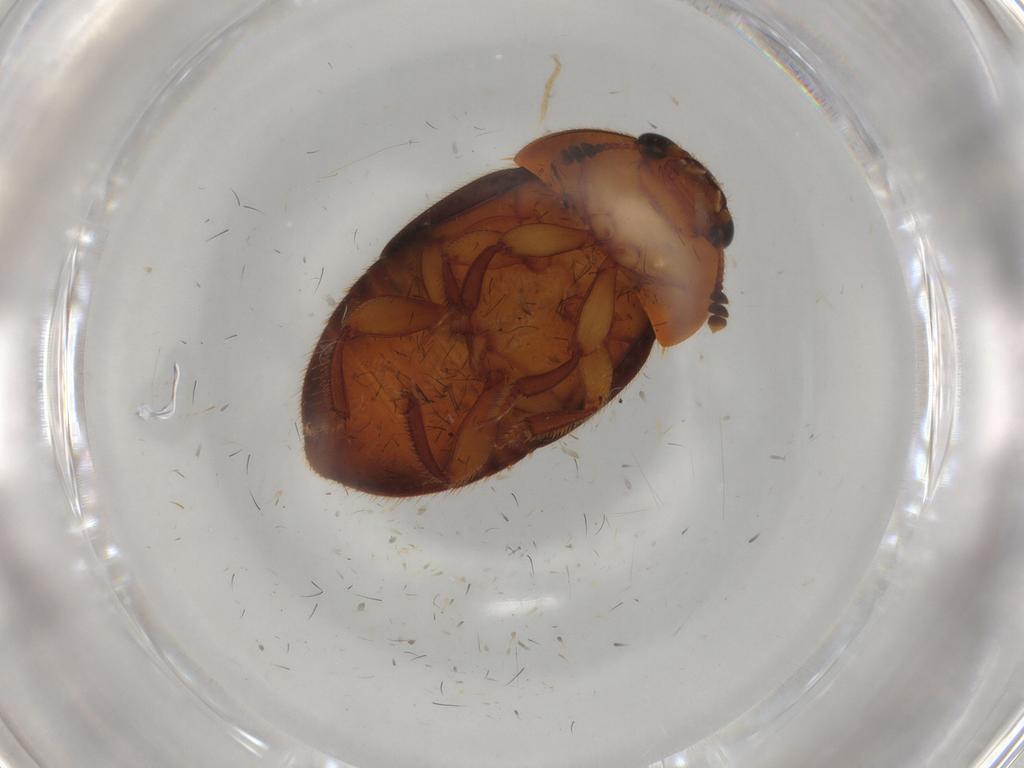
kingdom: Animalia
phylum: Arthropoda
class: Insecta
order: Coleoptera
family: Nitidulidae
